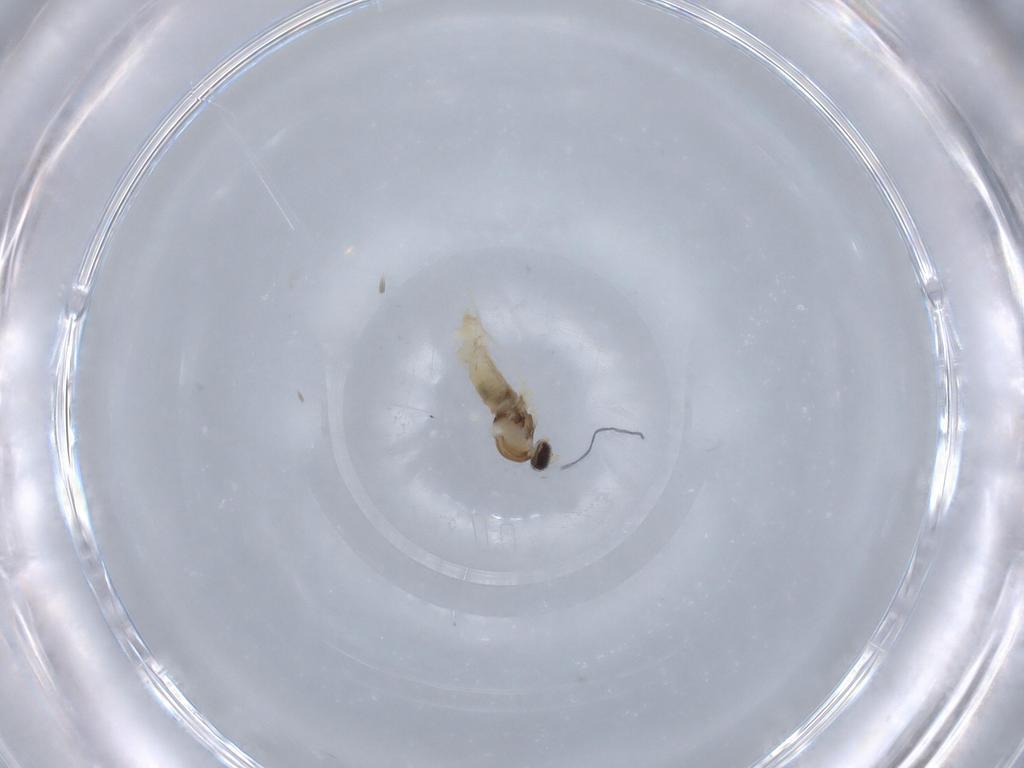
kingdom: Animalia
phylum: Arthropoda
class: Insecta
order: Diptera
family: Cecidomyiidae
